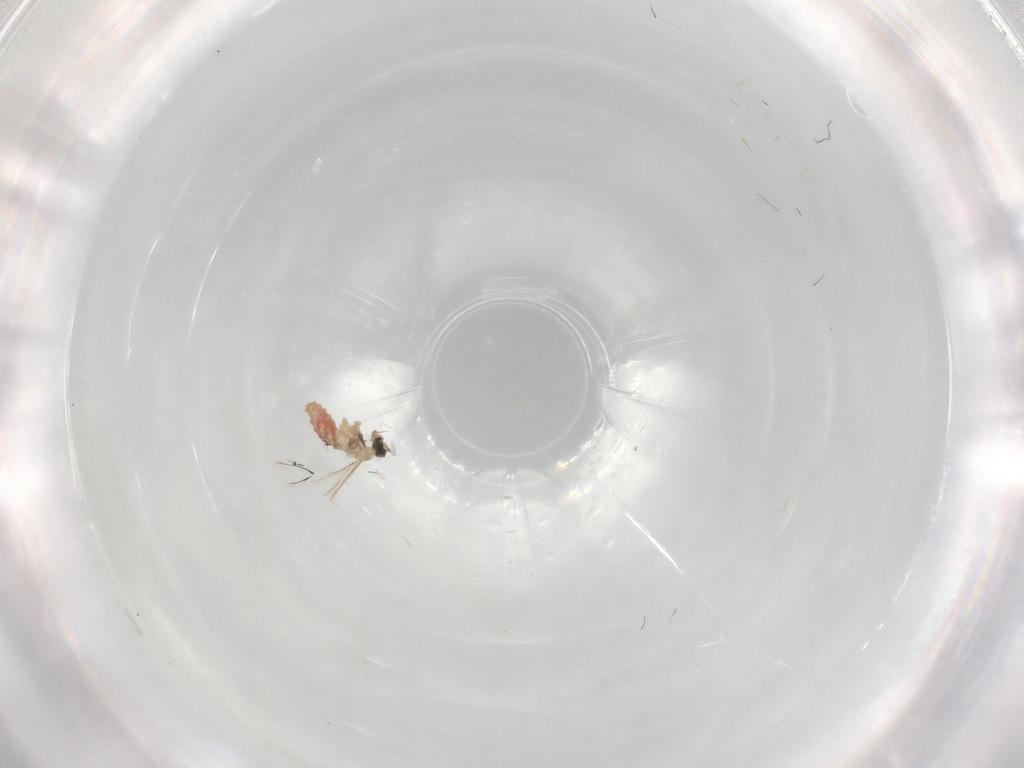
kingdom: Animalia
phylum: Arthropoda
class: Insecta
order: Diptera
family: Cecidomyiidae
